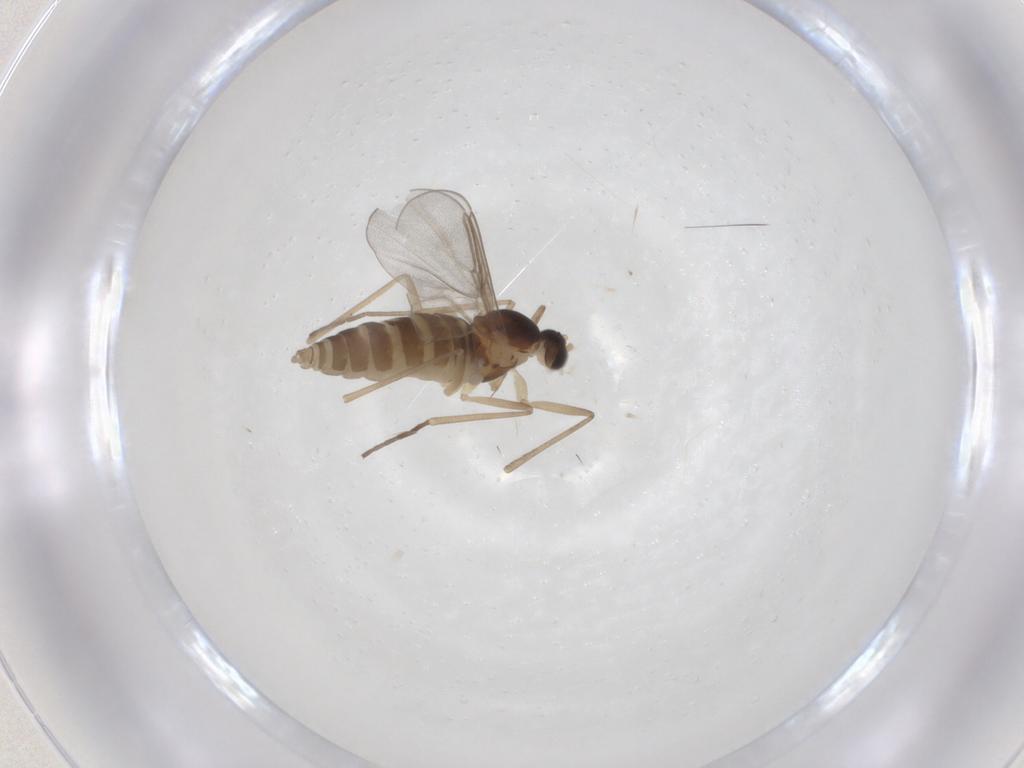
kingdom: Animalia
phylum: Arthropoda
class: Insecta
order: Diptera
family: Cecidomyiidae
